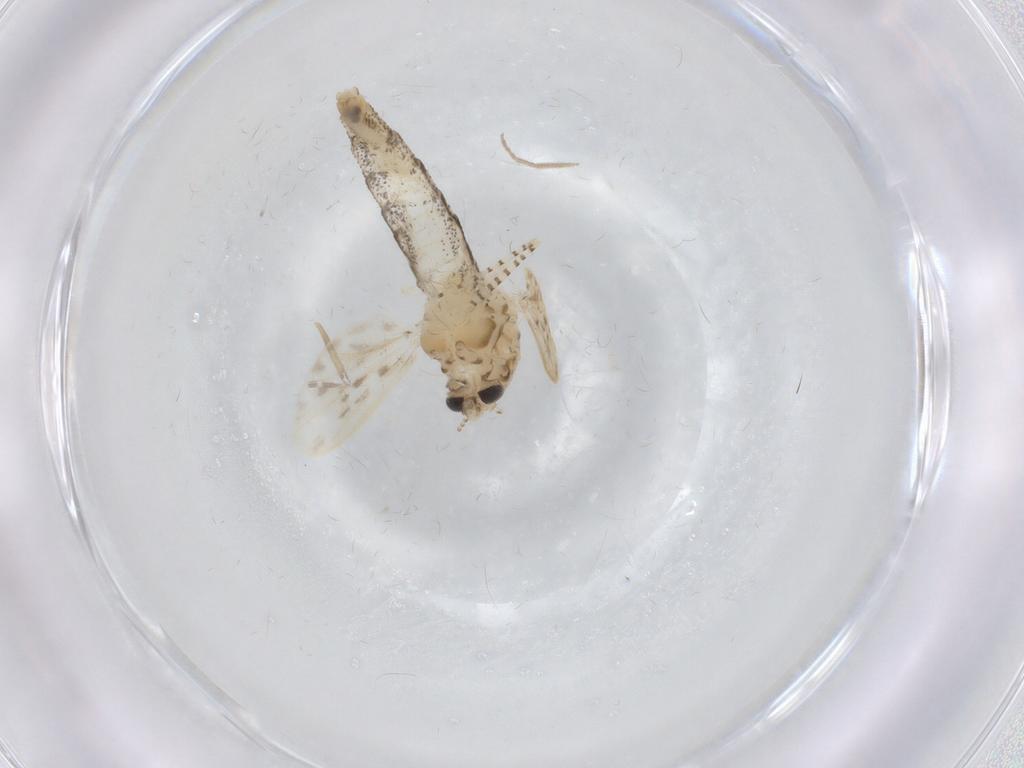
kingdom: Animalia
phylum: Arthropoda
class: Insecta
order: Diptera
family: Chaoboridae
